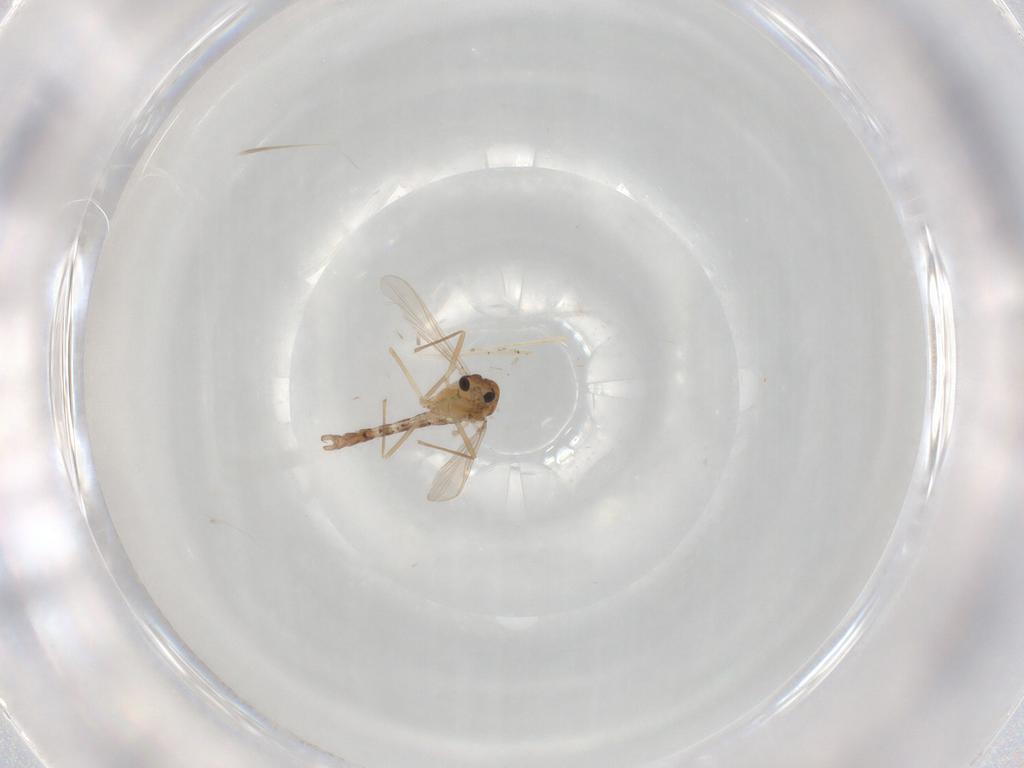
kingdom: Animalia
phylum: Arthropoda
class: Insecta
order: Diptera
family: Chironomidae
